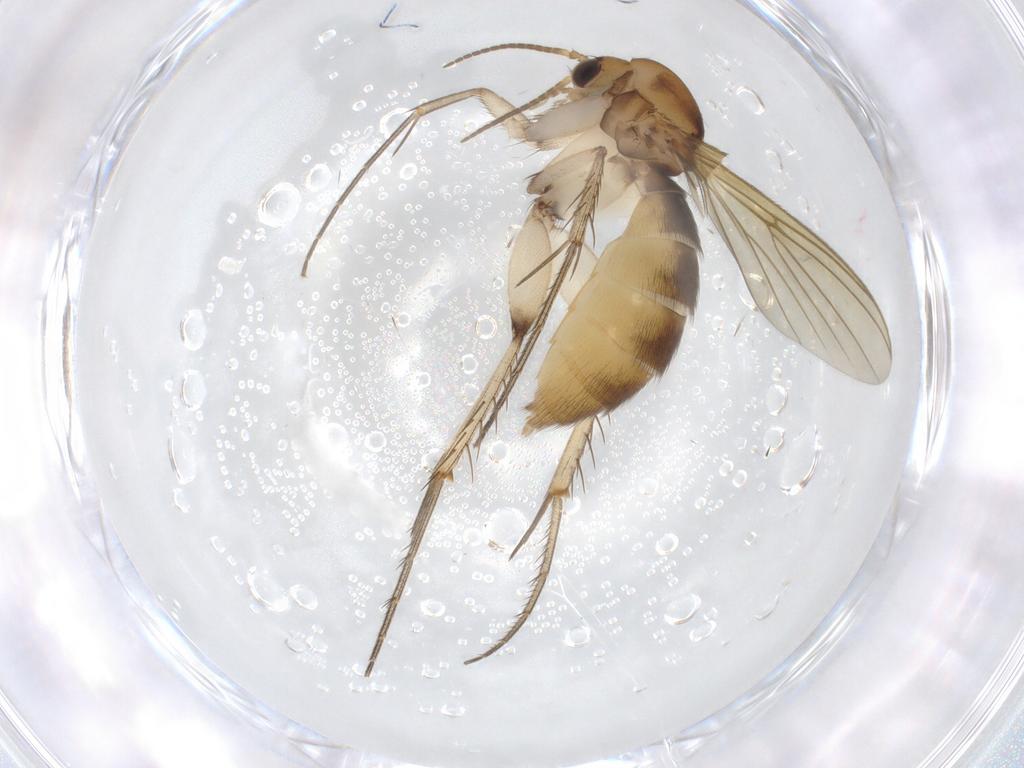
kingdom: Animalia
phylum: Arthropoda
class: Insecta
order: Diptera
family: Mycetophilidae
